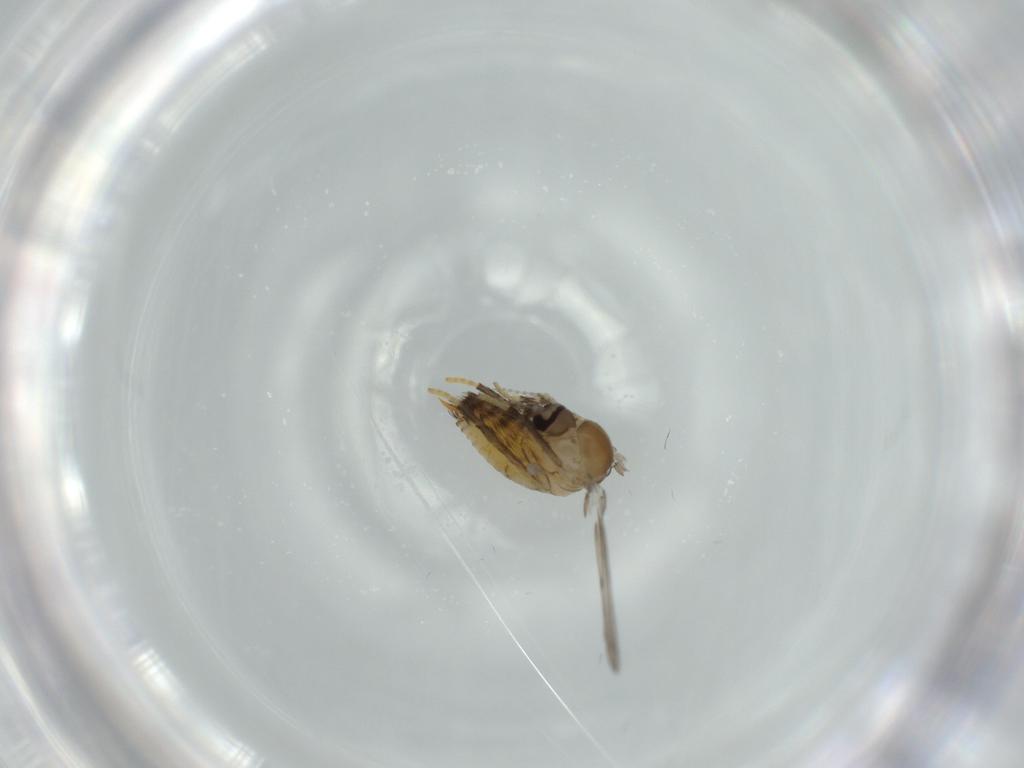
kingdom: Animalia
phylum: Arthropoda
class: Insecta
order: Diptera
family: Psychodidae
